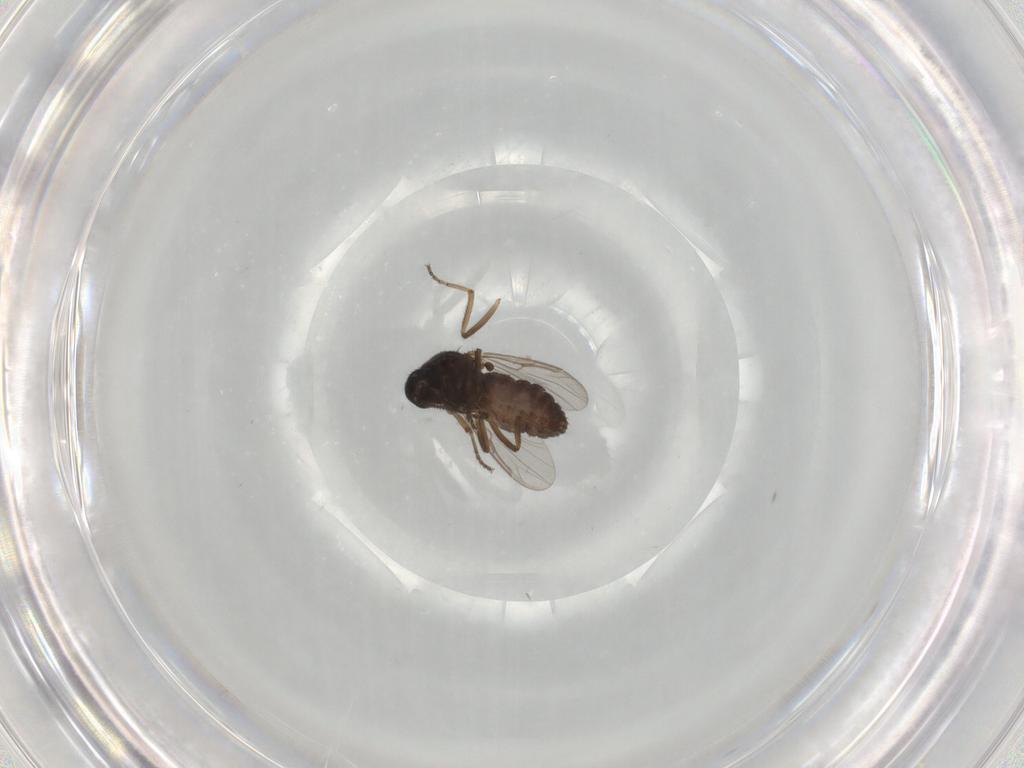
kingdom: Animalia
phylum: Arthropoda
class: Insecta
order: Diptera
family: Ceratopogonidae
